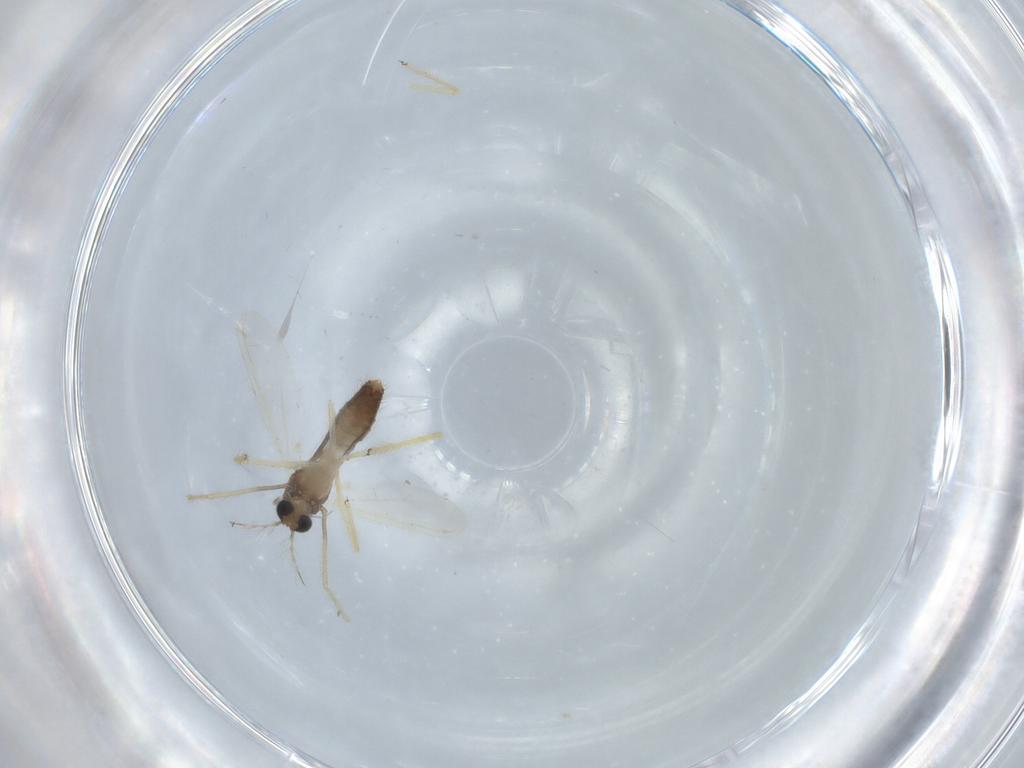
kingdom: Animalia
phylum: Arthropoda
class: Insecta
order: Diptera
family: Chironomidae
